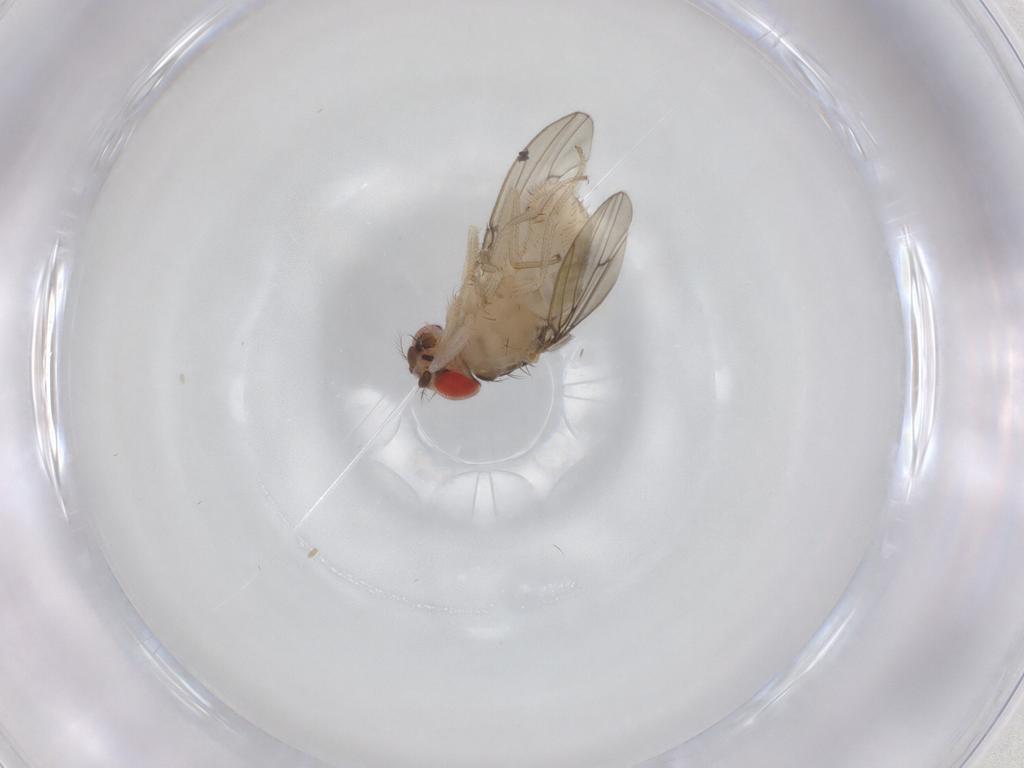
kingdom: Animalia
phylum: Arthropoda
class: Insecta
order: Diptera
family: Drosophilidae
